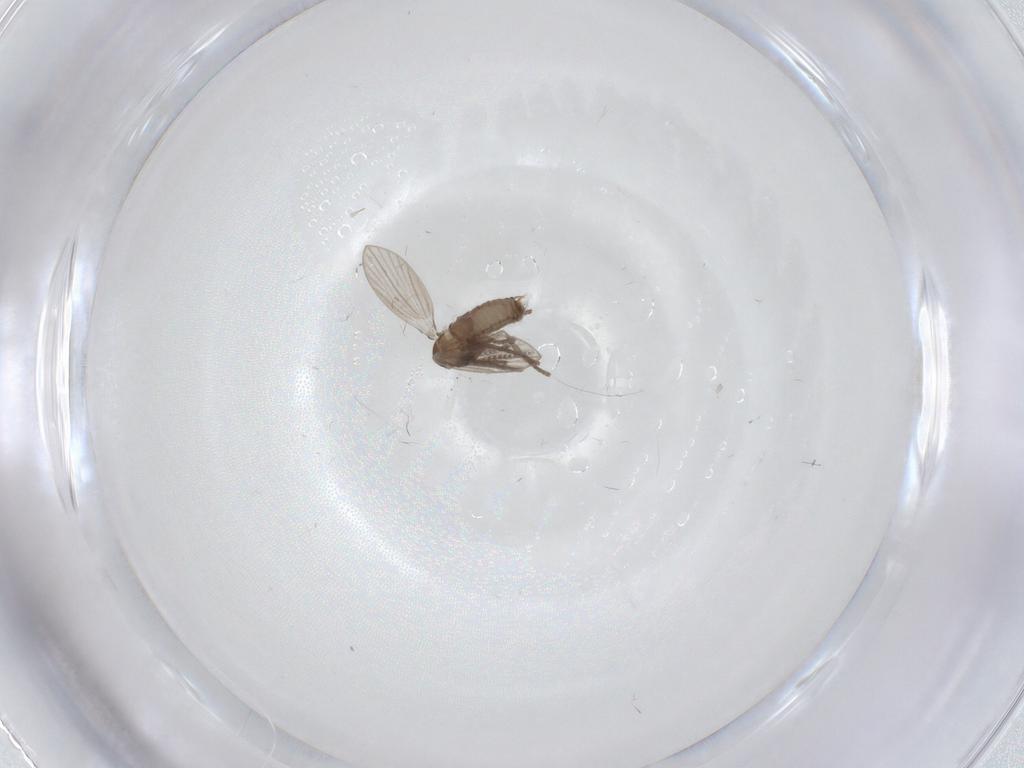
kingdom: Animalia
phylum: Arthropoda
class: Insecta
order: Diptera
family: Psychodidae
